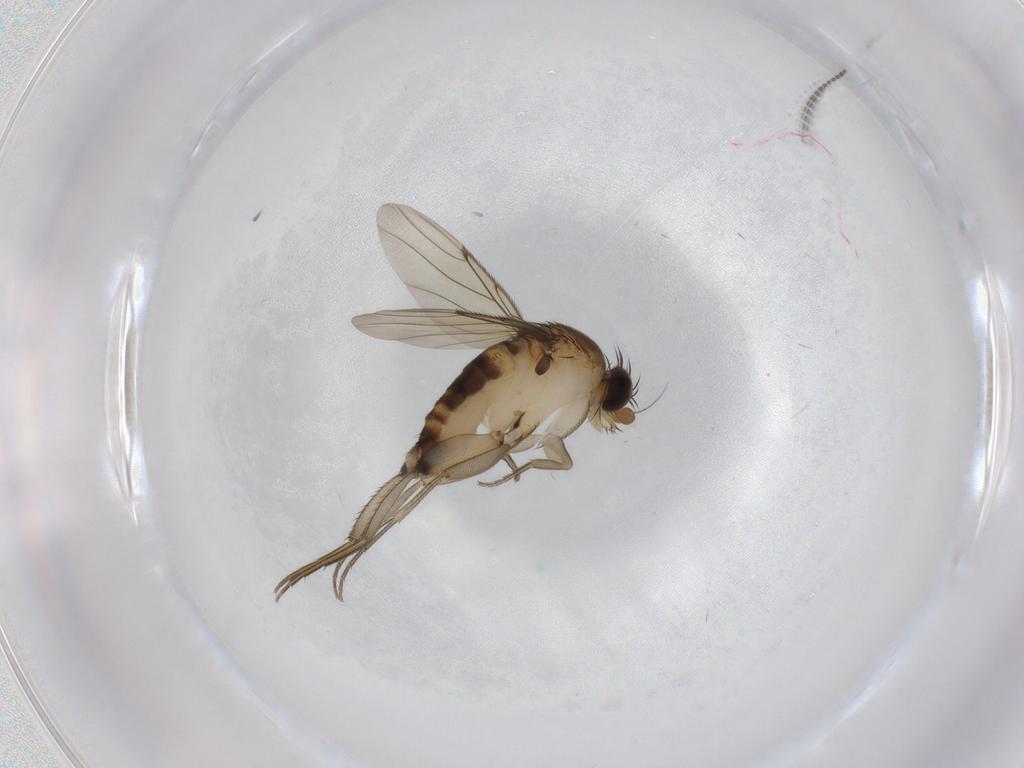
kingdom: Animalia
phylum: Arthropoda
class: Insecta
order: Diptera
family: Phoridae
